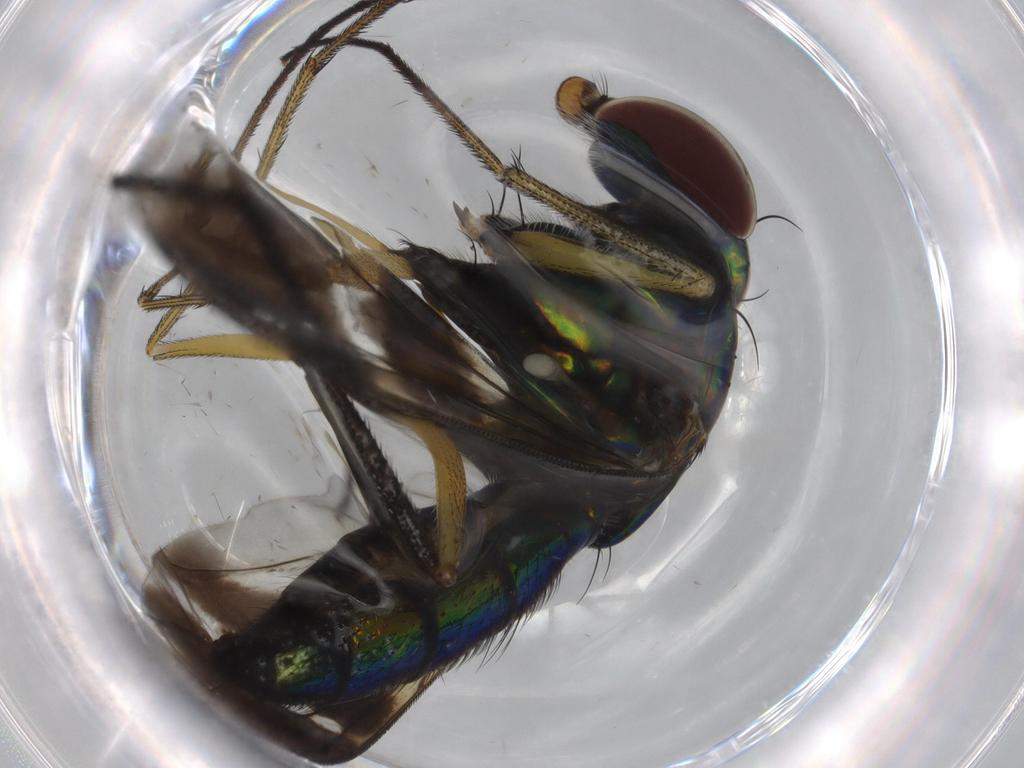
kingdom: Animalia
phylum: Arthropoda
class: Insecta
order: Diptera
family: Dolichopodidae
